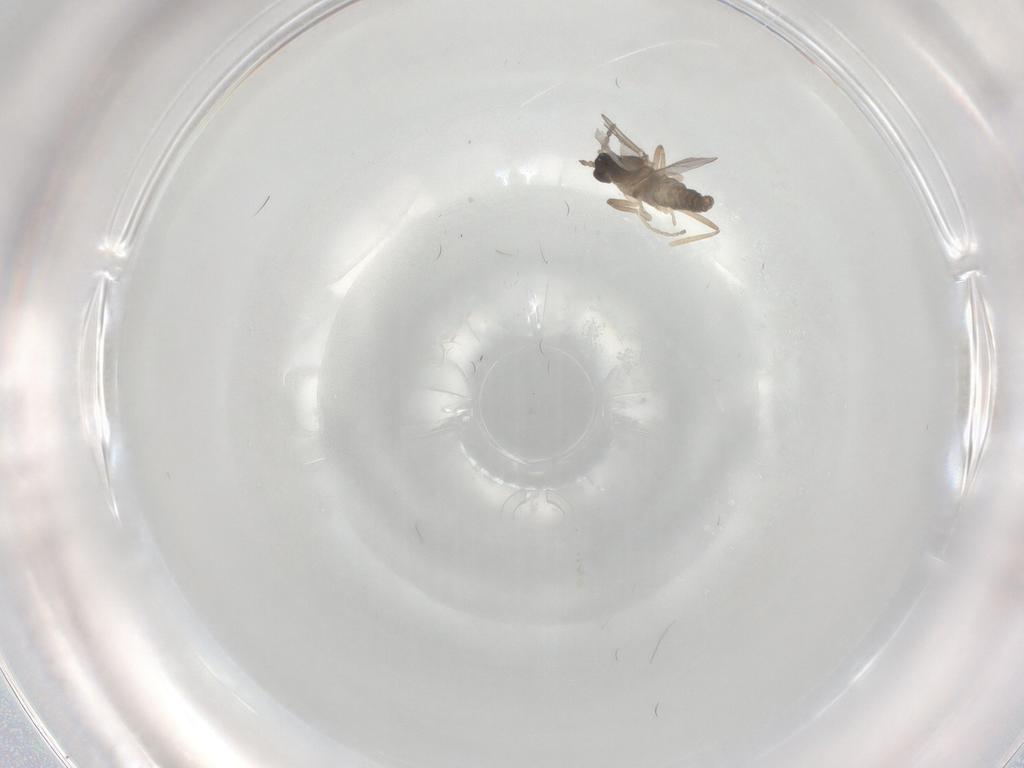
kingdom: Animalia
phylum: Arthropoda
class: Insecta
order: Diptera
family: Cecidomyiidae
